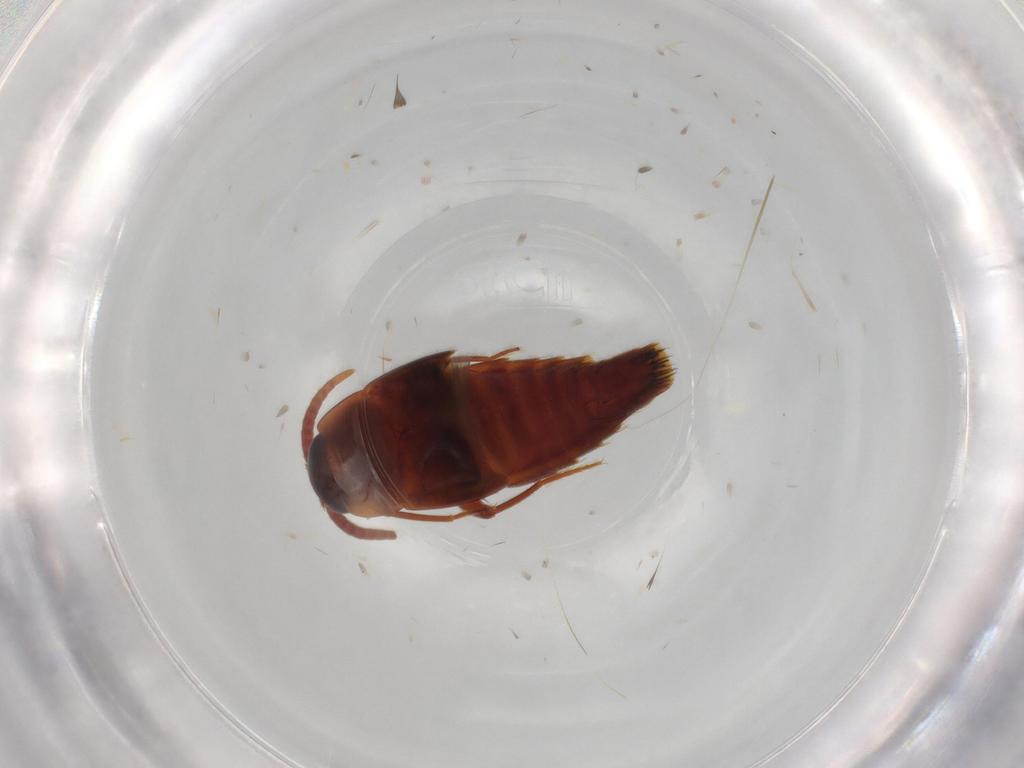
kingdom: Animalia
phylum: Arthropoda
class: Insecta
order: Coleoptera
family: Staphylinidae
